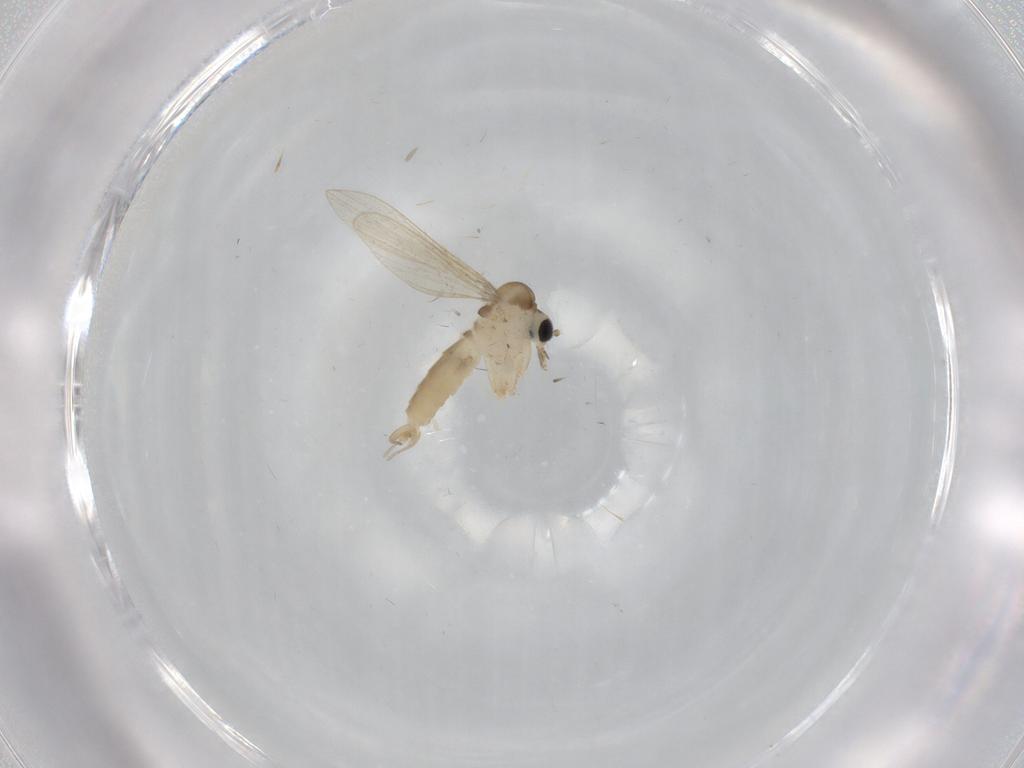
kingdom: Animalia
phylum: Arthropoda
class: Insecta
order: Diptera
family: Psychodidae
